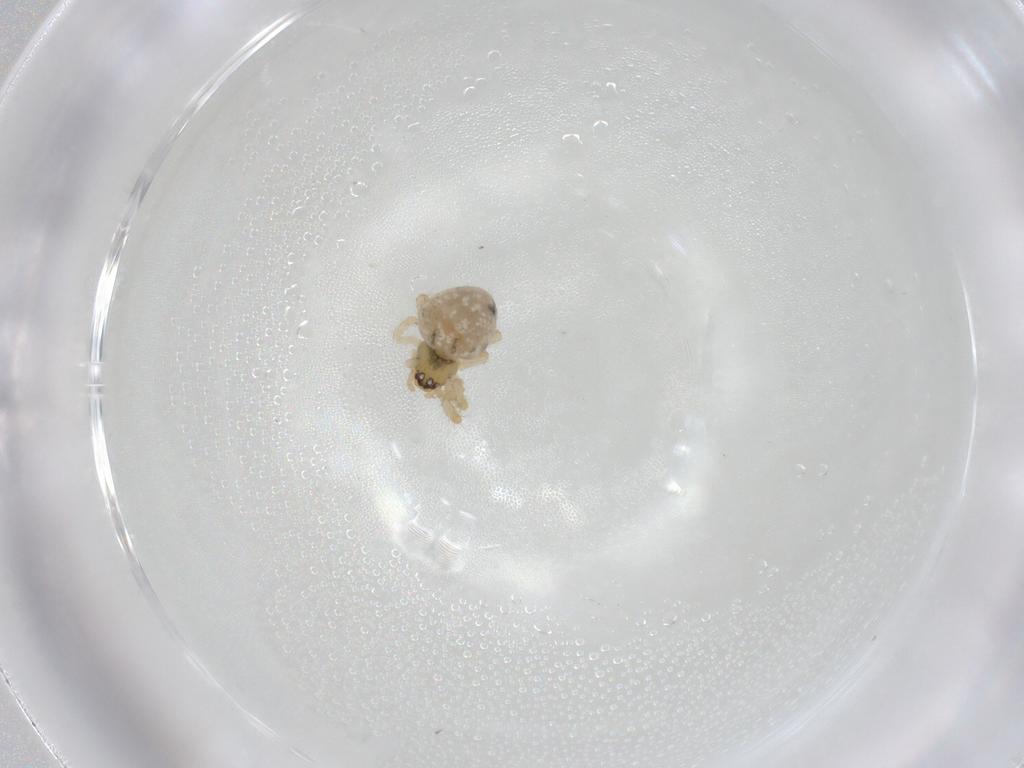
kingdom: Animalia
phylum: Arthropoda
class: Arachnida
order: Araneae
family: Theridiidae
